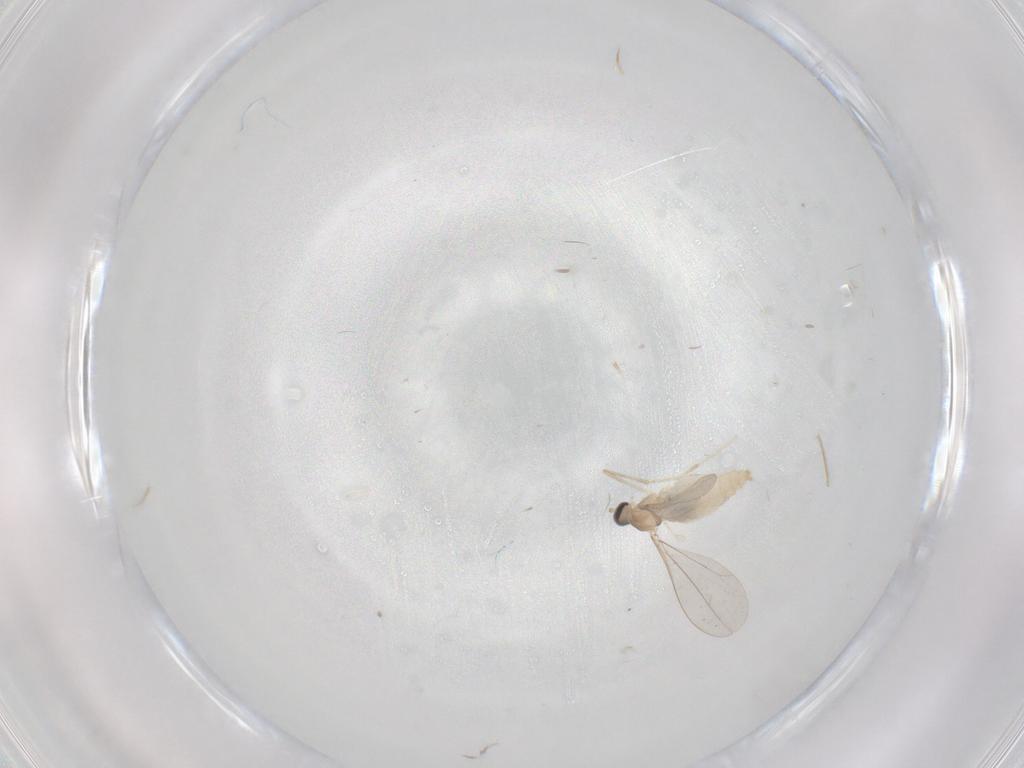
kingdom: Animalia
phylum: Arthropoda
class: Insecta
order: Diptera
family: Cecidomyiidae
